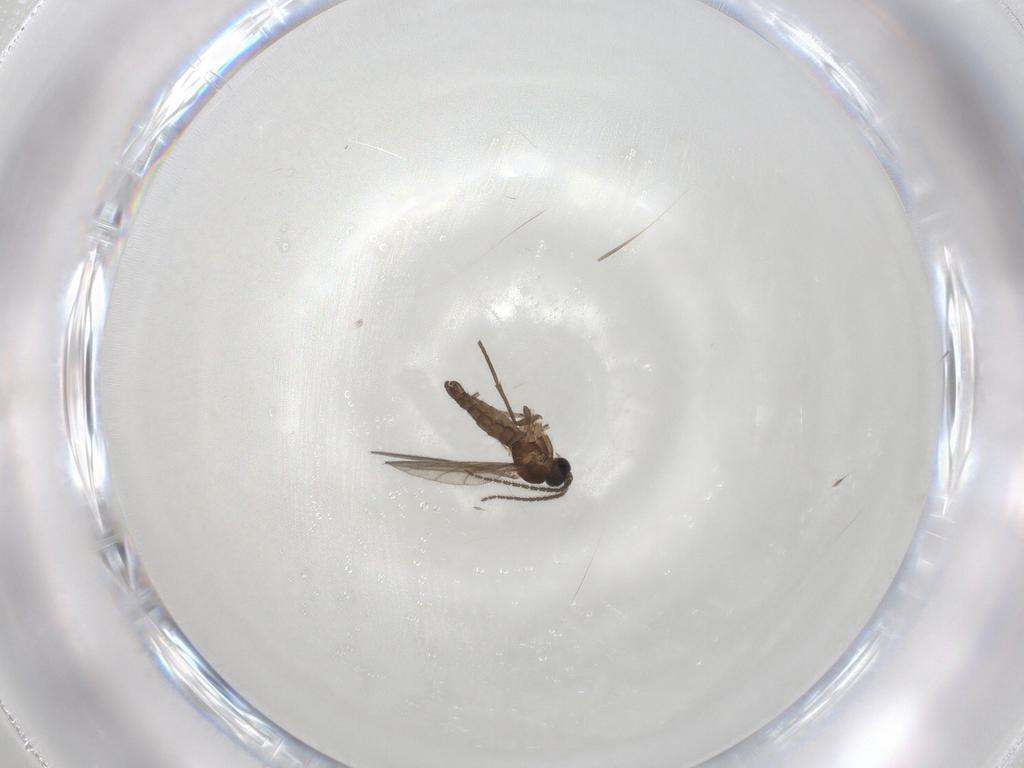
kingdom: Animalia
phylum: Arthropoda
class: Insecta
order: Diptera
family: Sciaridae
